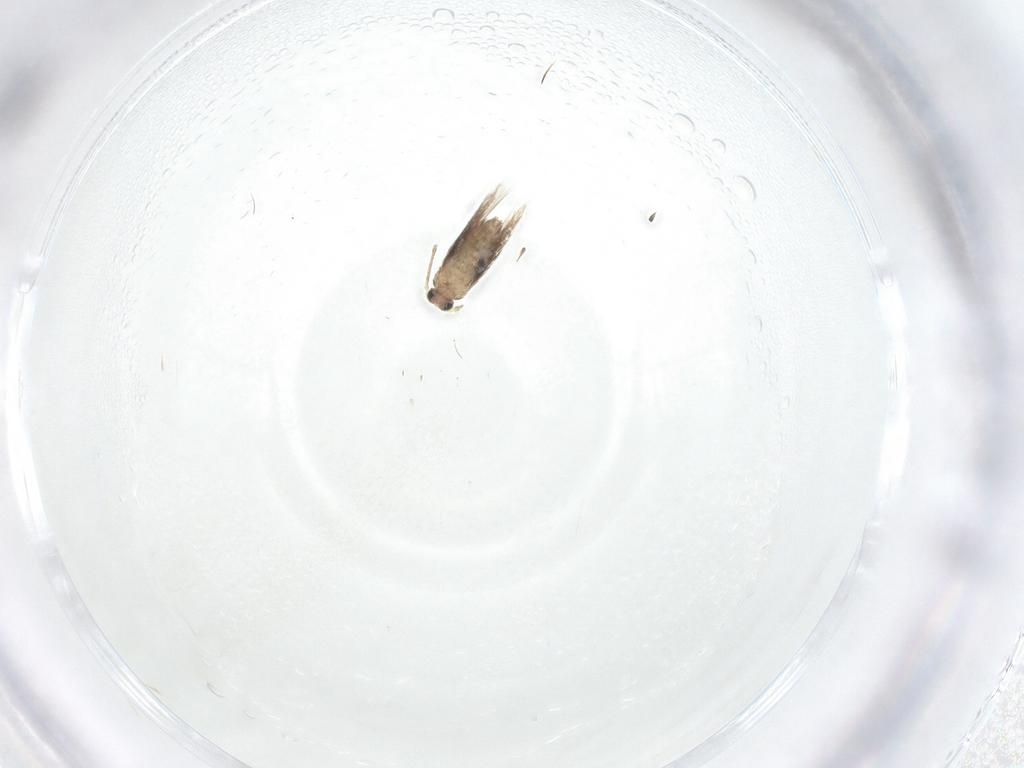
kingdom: Animalia
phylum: Arthropoda
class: Insecta
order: Lepidoptera
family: Nepticulidae
